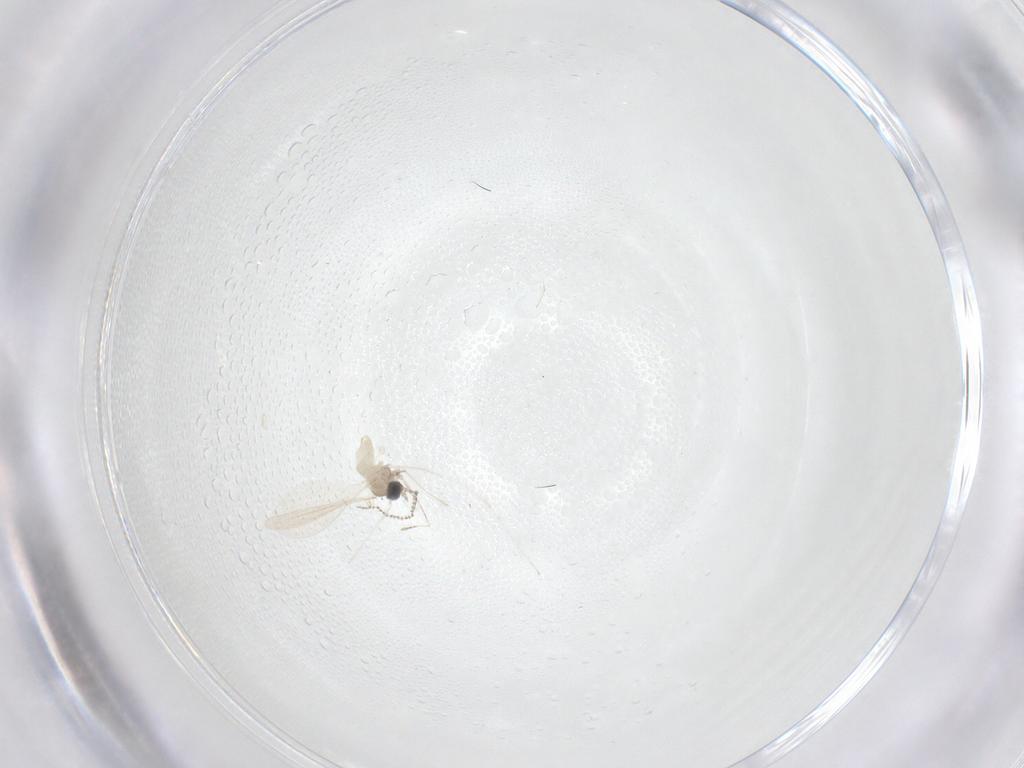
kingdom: Animalia
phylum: Arthropoda
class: Insecta
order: Diptera
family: Cecidomyiidae
